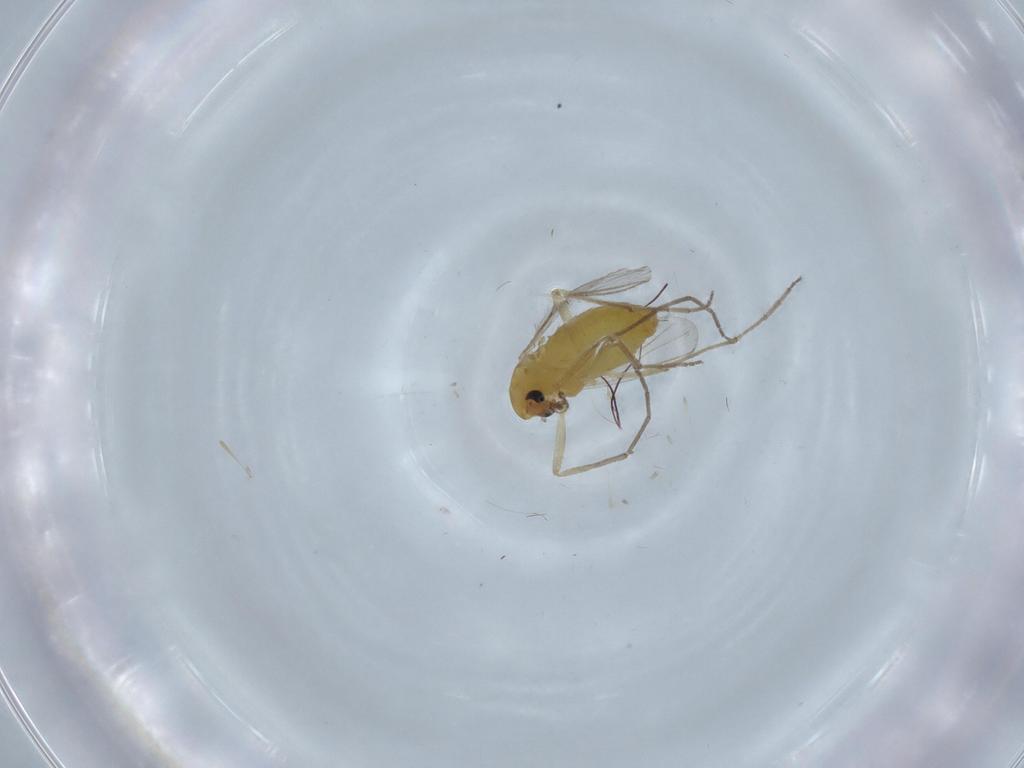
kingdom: Animalia
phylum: Arthropoda
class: Insecta
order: Diptera
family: Chironomidae
